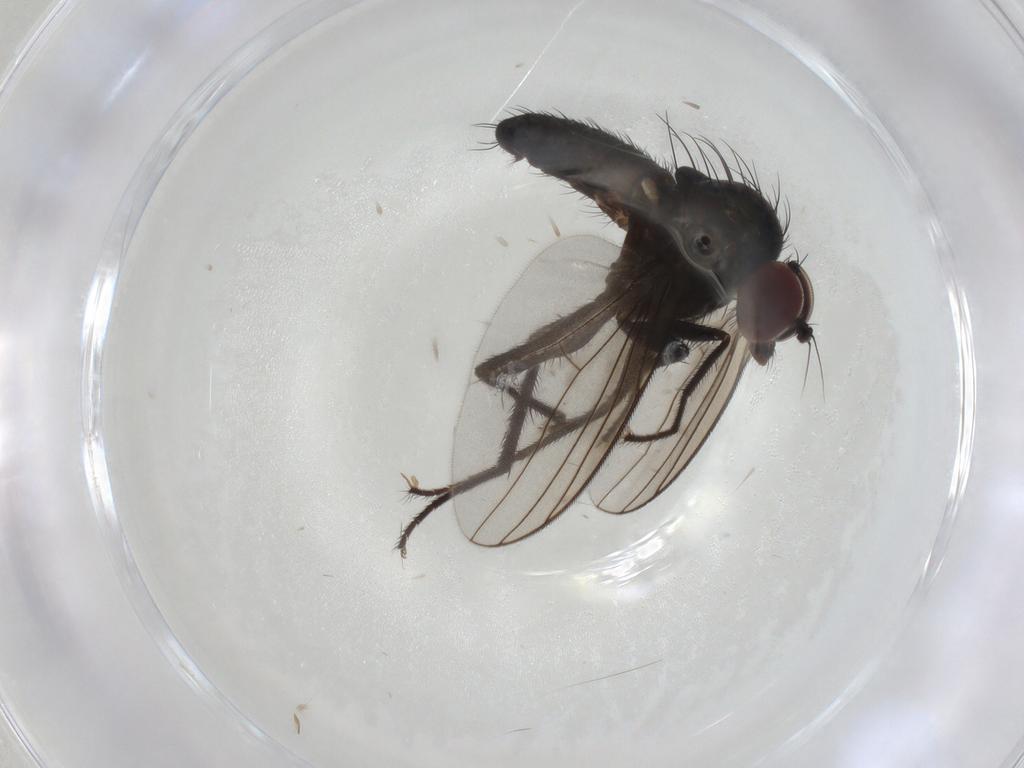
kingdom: Animalia
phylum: Arthropoda
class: Insecta
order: Diptera
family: Dolichopodidae
